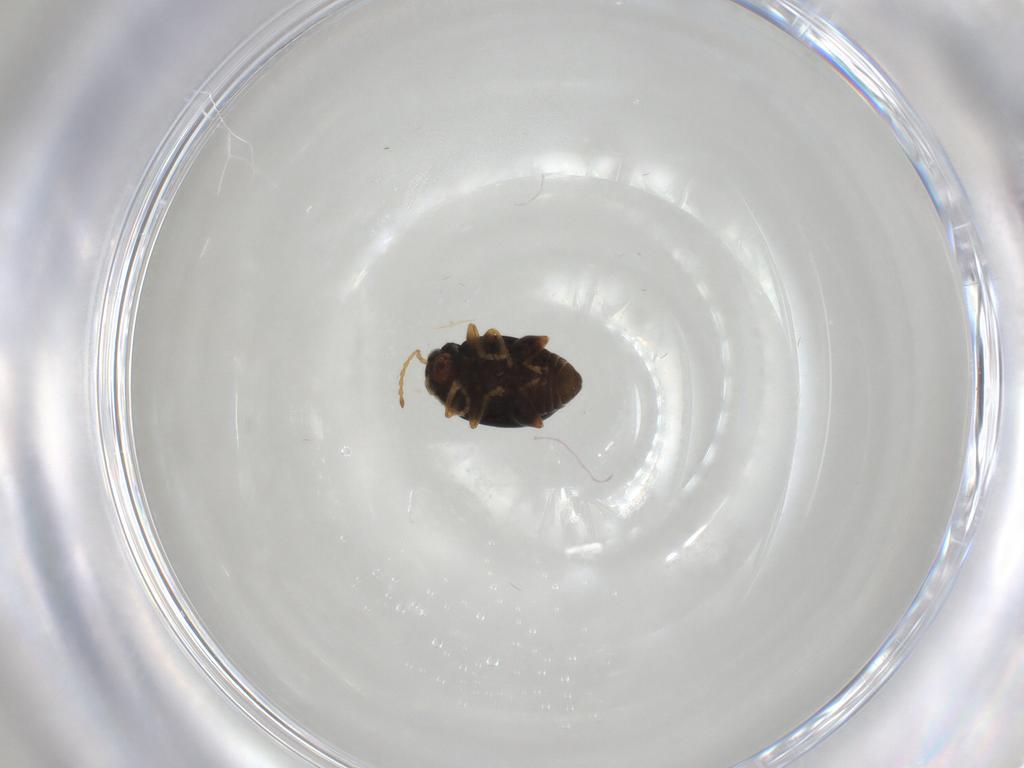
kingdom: Animalia
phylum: Arthropoda
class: Insecta
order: Coleoptera
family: Chrysomelidae
